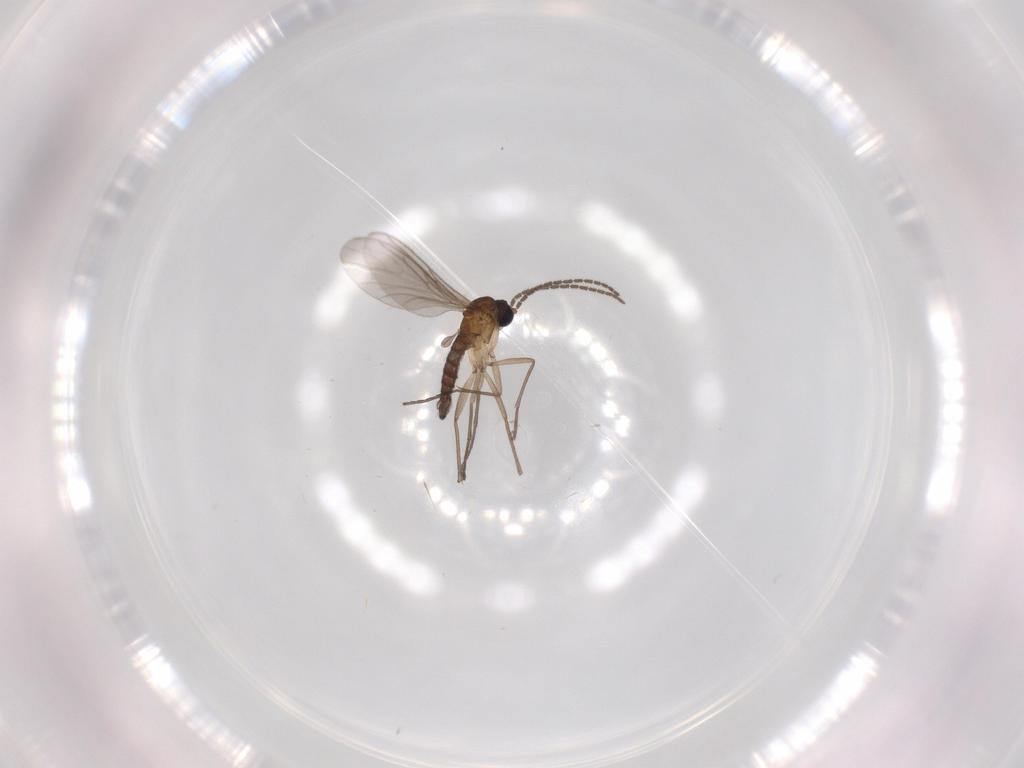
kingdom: Animalia
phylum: Arthropoda
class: Insecta
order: Diptera
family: Sciaridae
